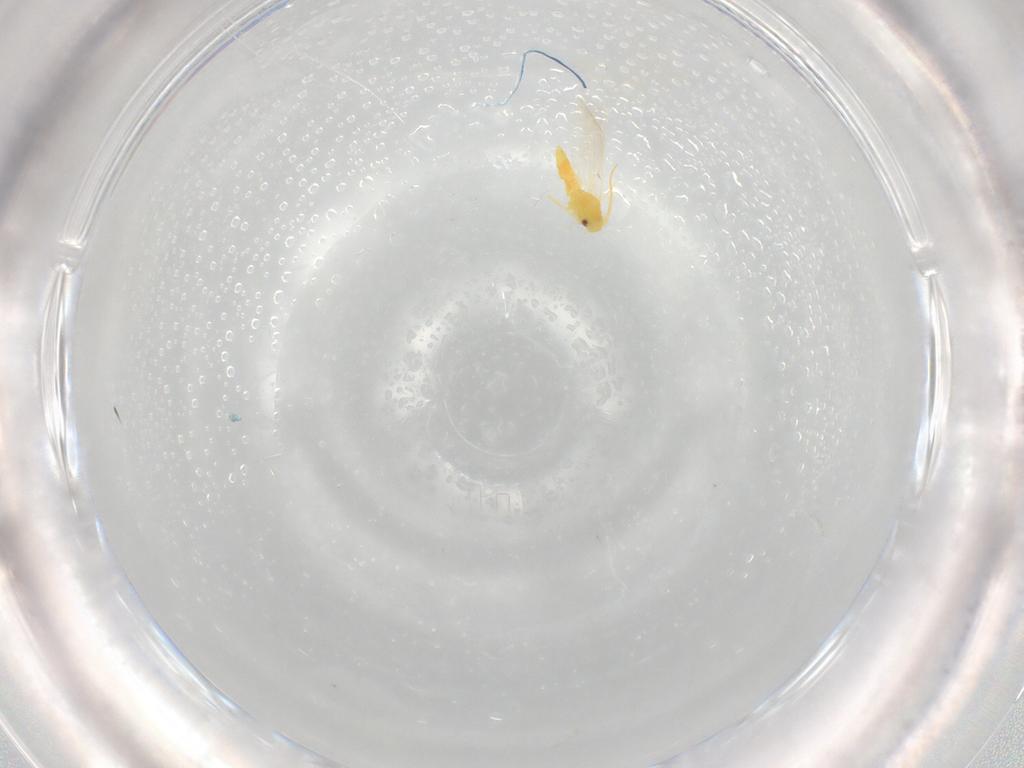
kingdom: Animalia
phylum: Arthropoda
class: Insecta
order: Hemiptera
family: Aleyrodidae
